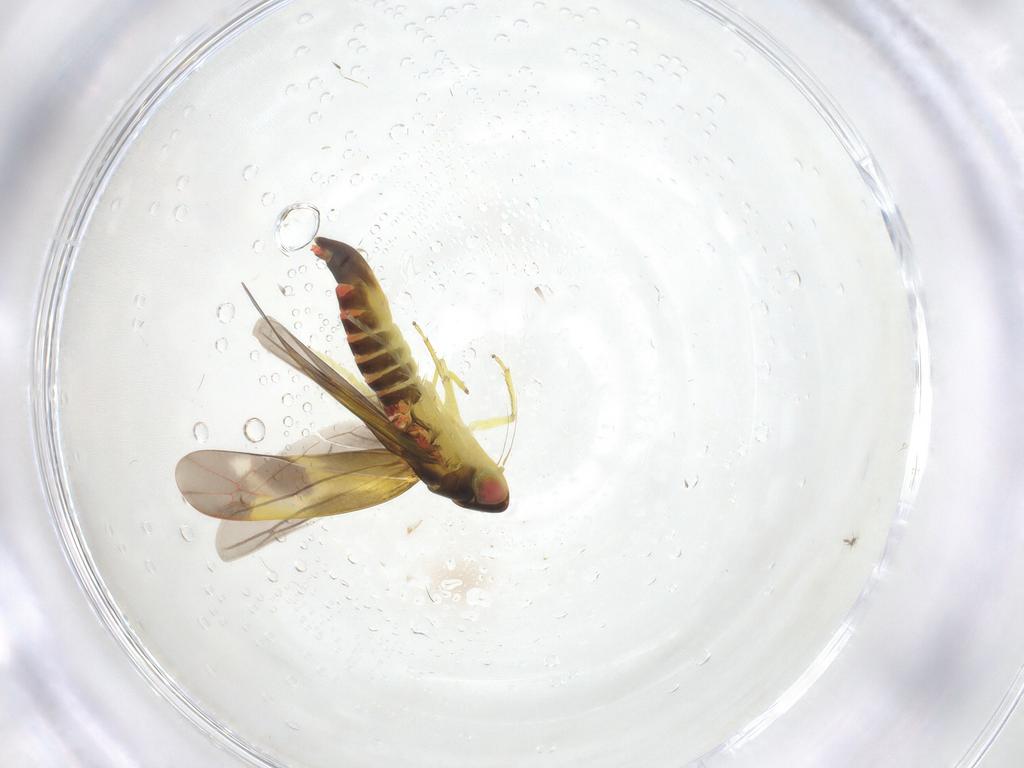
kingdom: Animalia
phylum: Arthropoda
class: Insecta
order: Hemiptera
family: Cicadellidae
